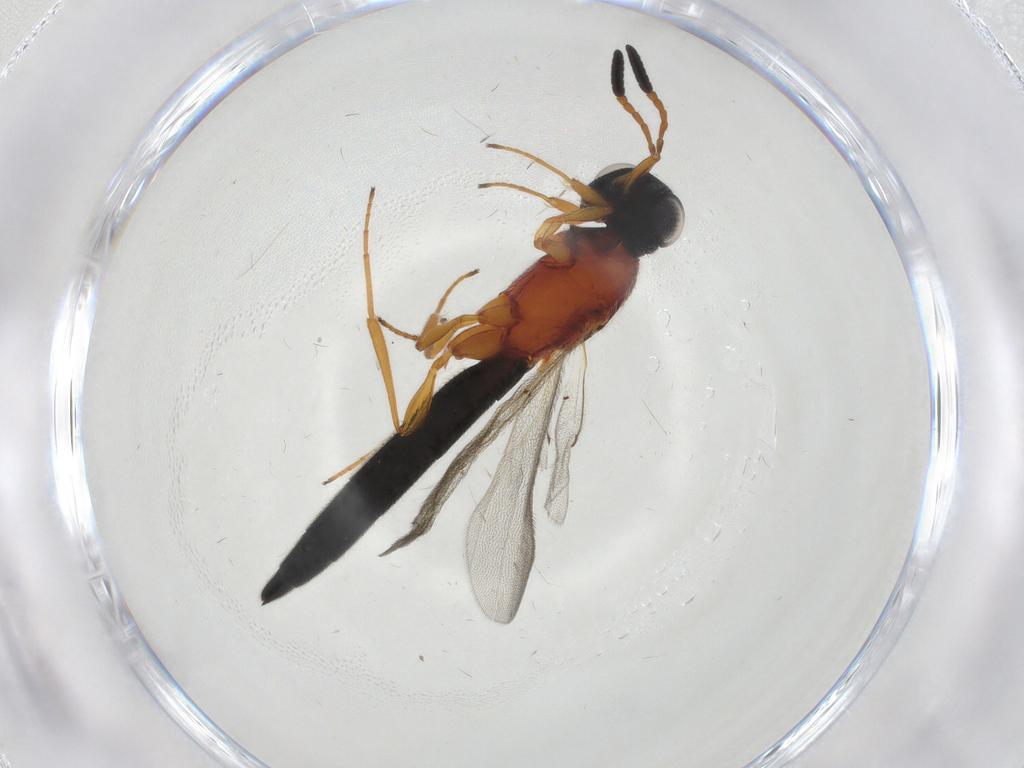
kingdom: Animalia
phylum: Arthropoda
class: Insecta
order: Hymenoptera
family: Scelionidae
